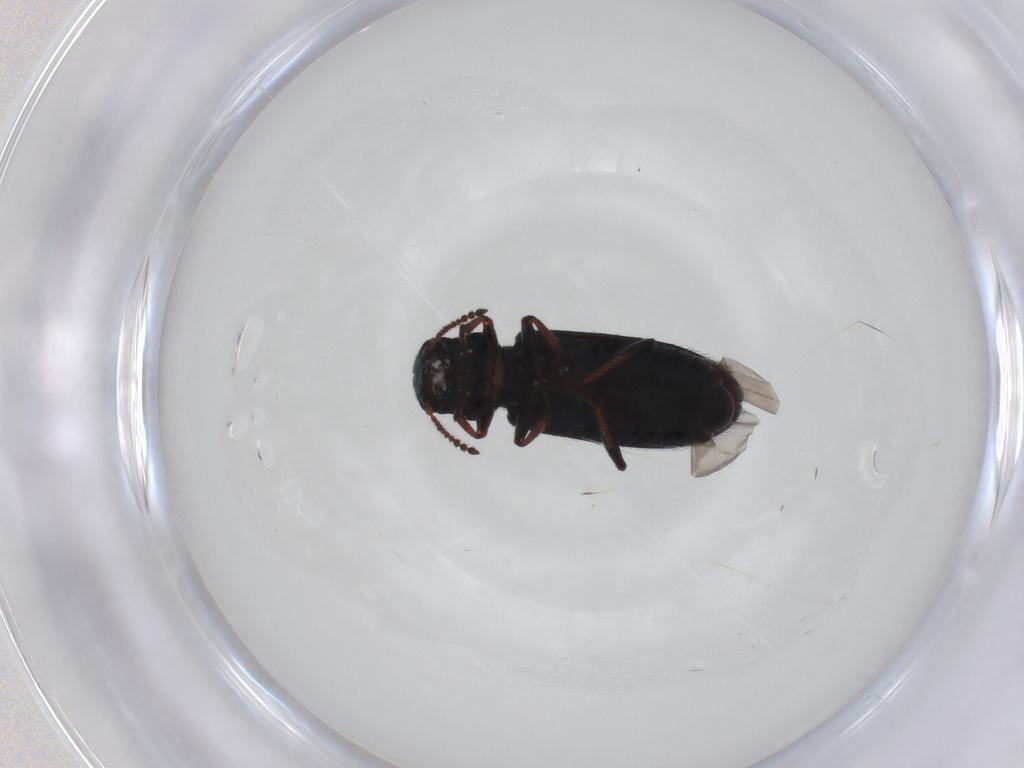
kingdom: Animalia
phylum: Arthropoda
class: Insecta
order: Coleoptera
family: Melyridae
